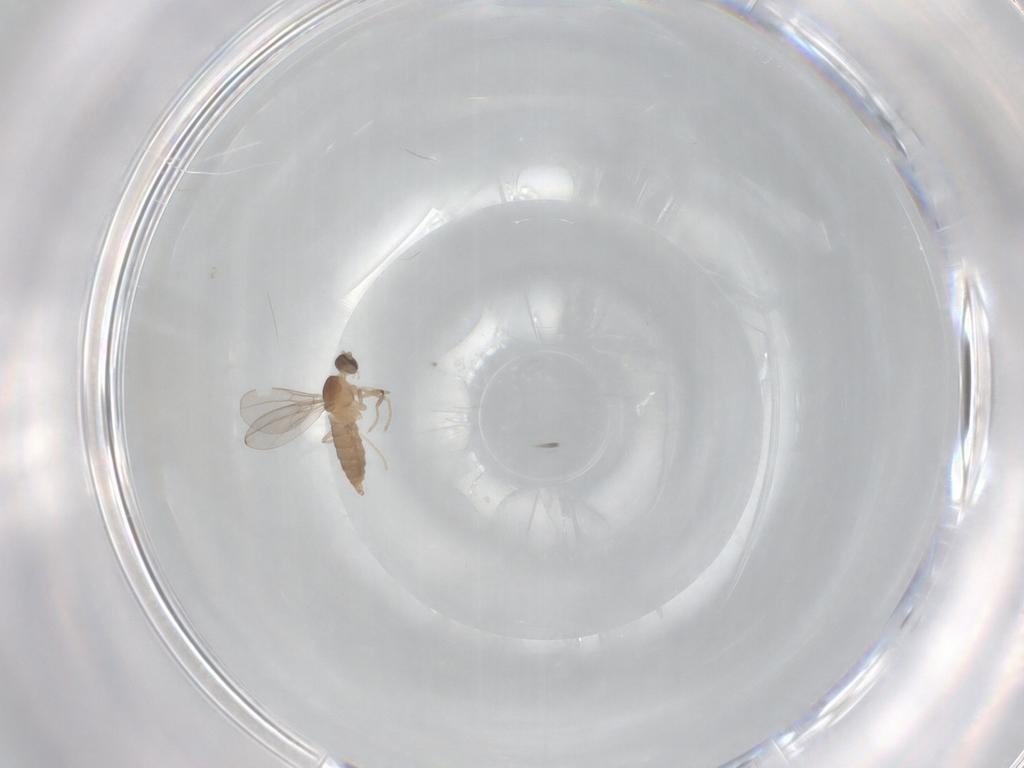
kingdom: Animalia
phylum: Arthropoda
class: Insecta
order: Diptera
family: Cecidomyiidae
